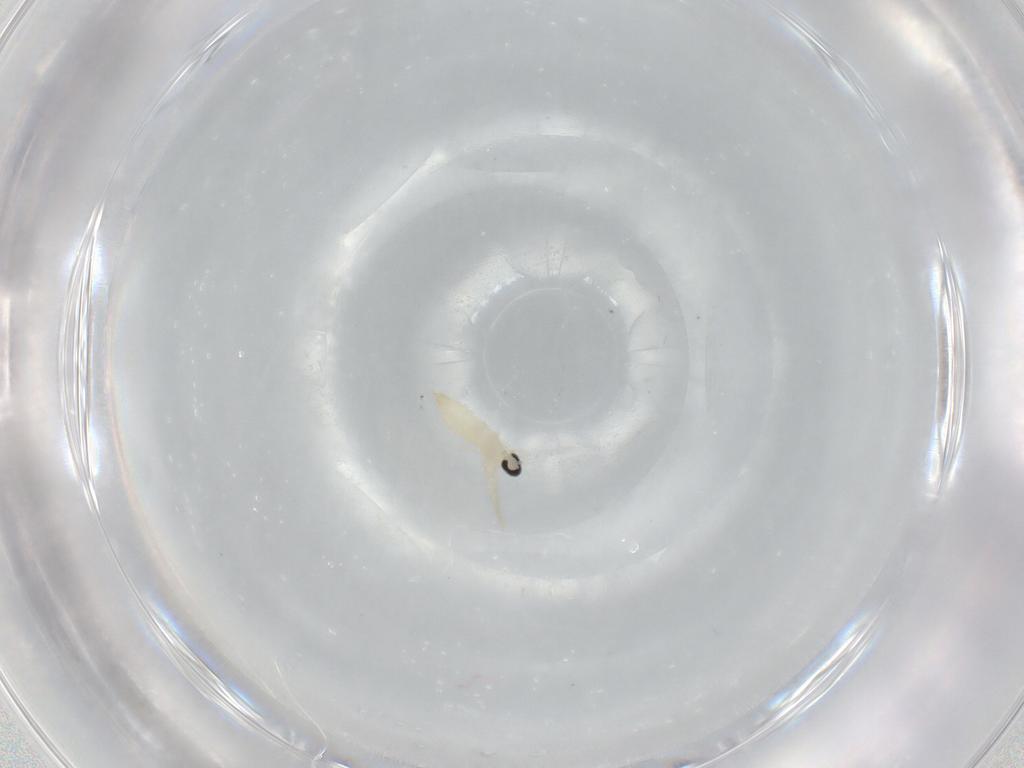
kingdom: Animalia
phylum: Arthropoda
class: Insecta
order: Diptera
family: Cecidomyiidae
